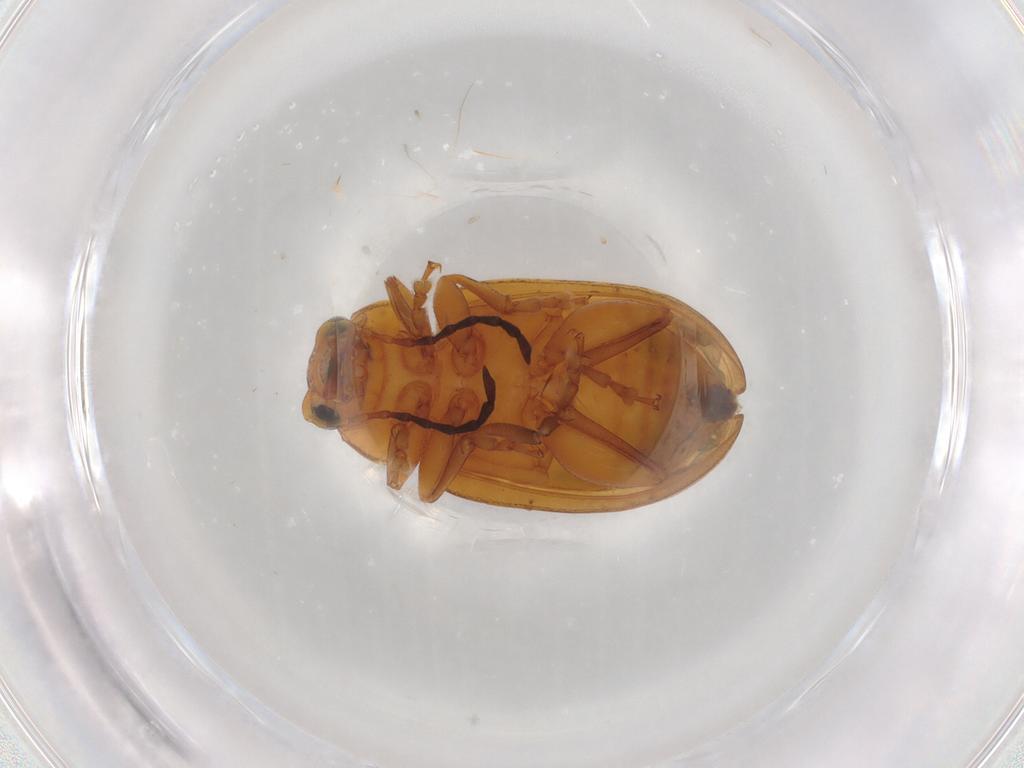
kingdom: Animalia
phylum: Arthropoda
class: Insecta
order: Coleoptera
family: Chrysomelidae
